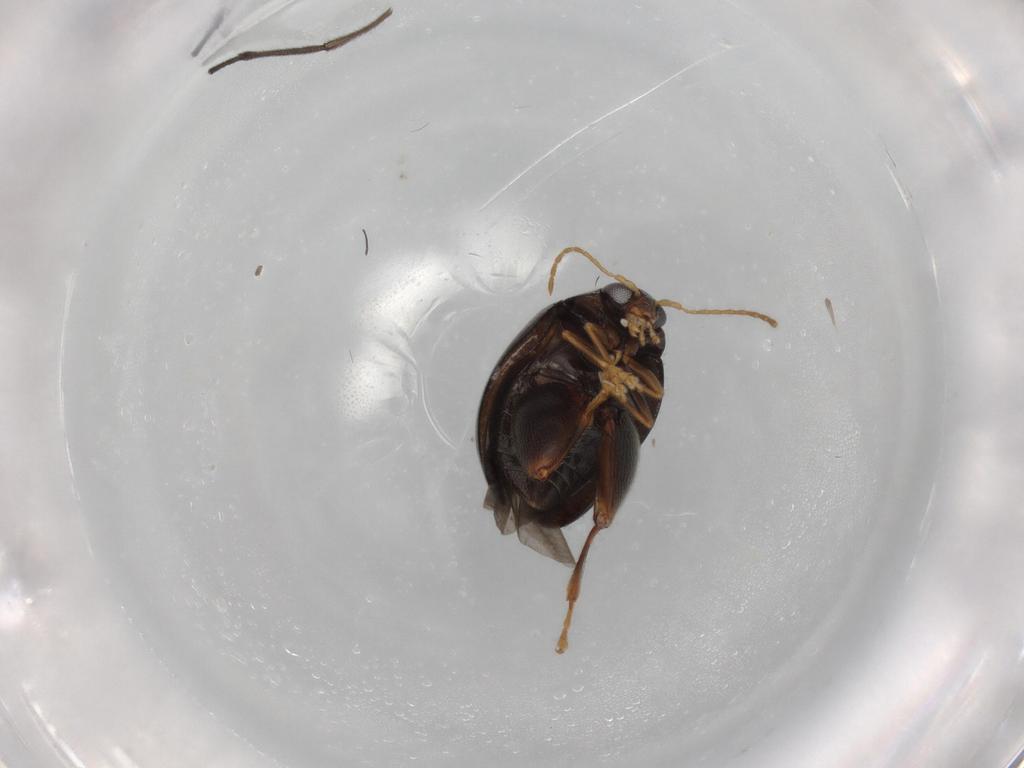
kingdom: Animalia
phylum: Arthropoda
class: Insecta
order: Coleoptera
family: Chrysomelidae
